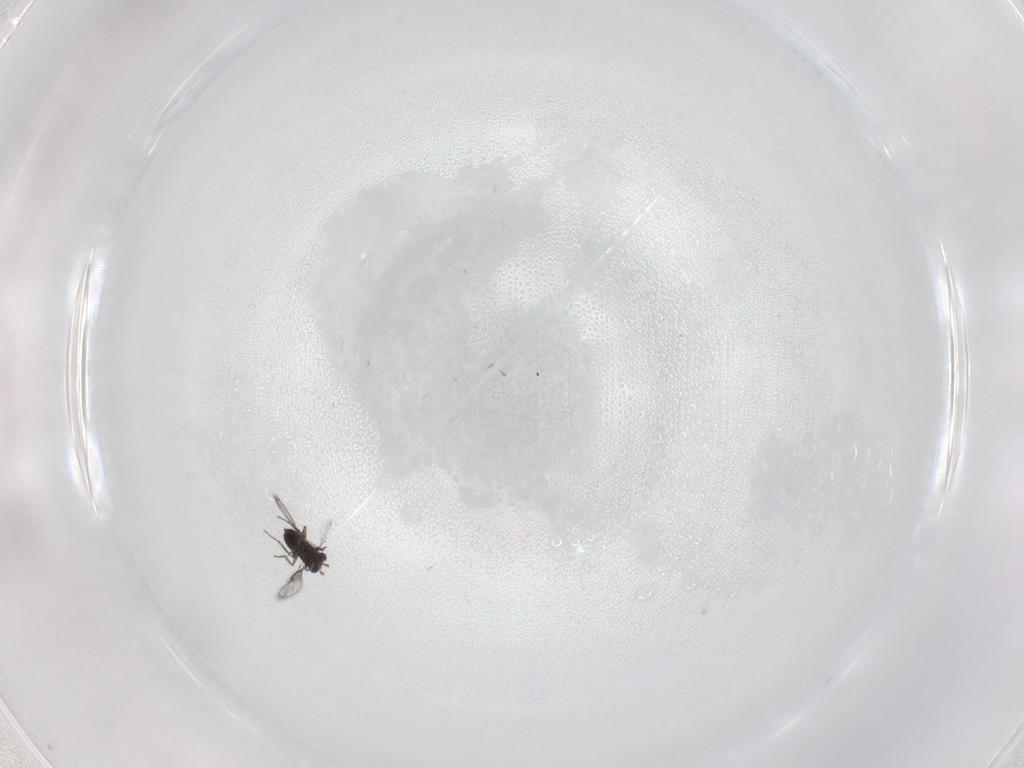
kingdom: Animalia
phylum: Arthropoda
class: Insecta
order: Hymenoptera
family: Trichogrammatidae
